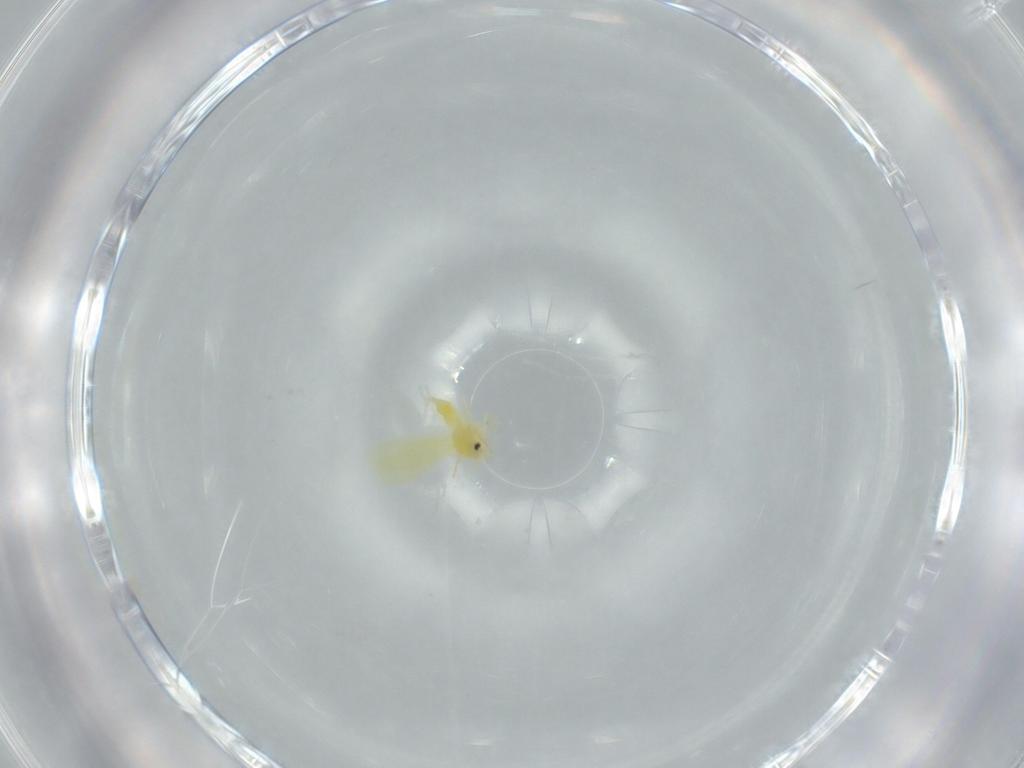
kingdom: Animalia
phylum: Arthropoda
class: Insecta
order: Hemiptera
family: Aleyrodidae
